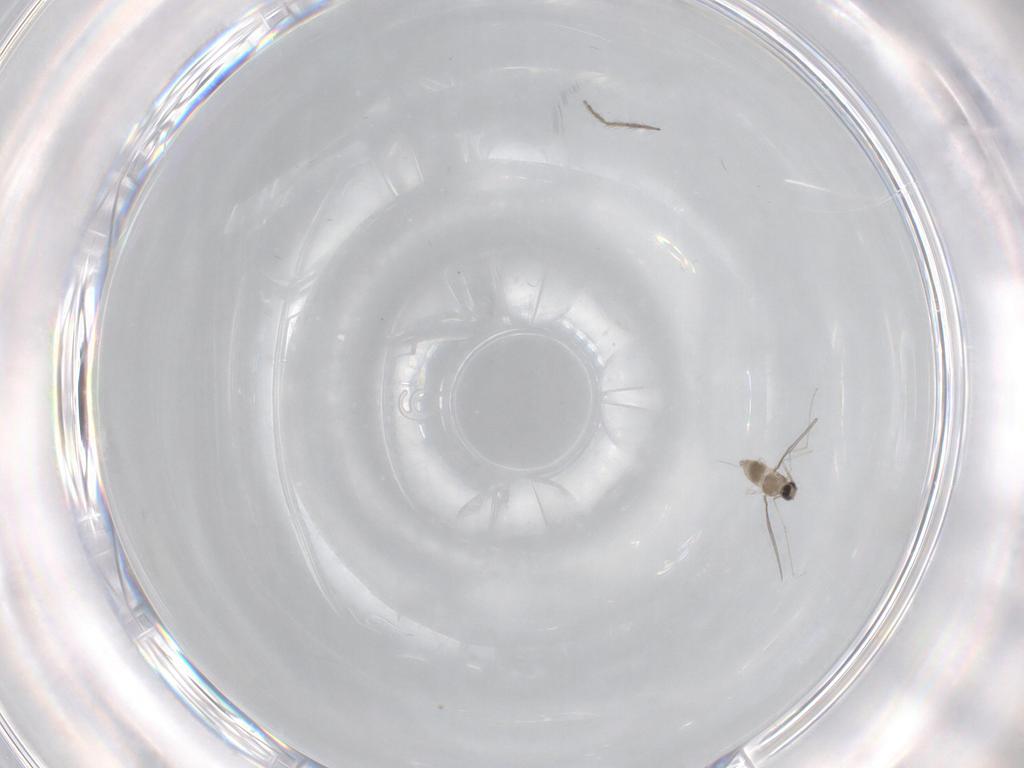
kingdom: Animalia
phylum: Arthropoda
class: Insecta
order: Diptera
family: Chironomidae
